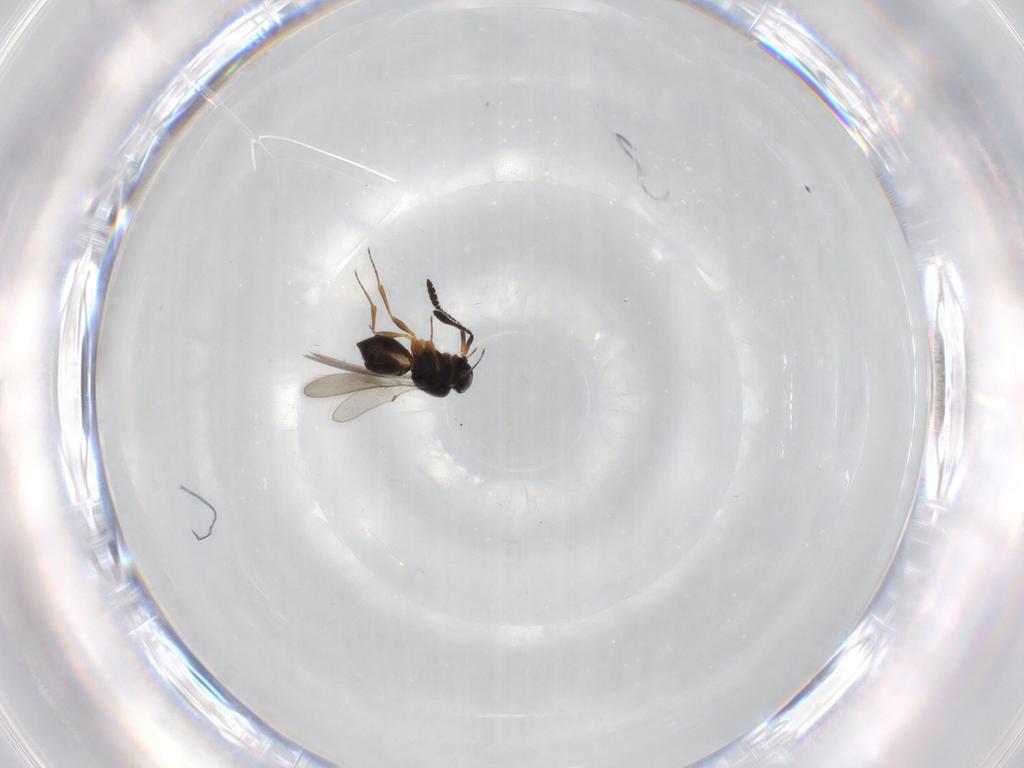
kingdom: Animalia
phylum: Arthropoda
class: Insecta
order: Hymenoptera
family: Scelionidae
